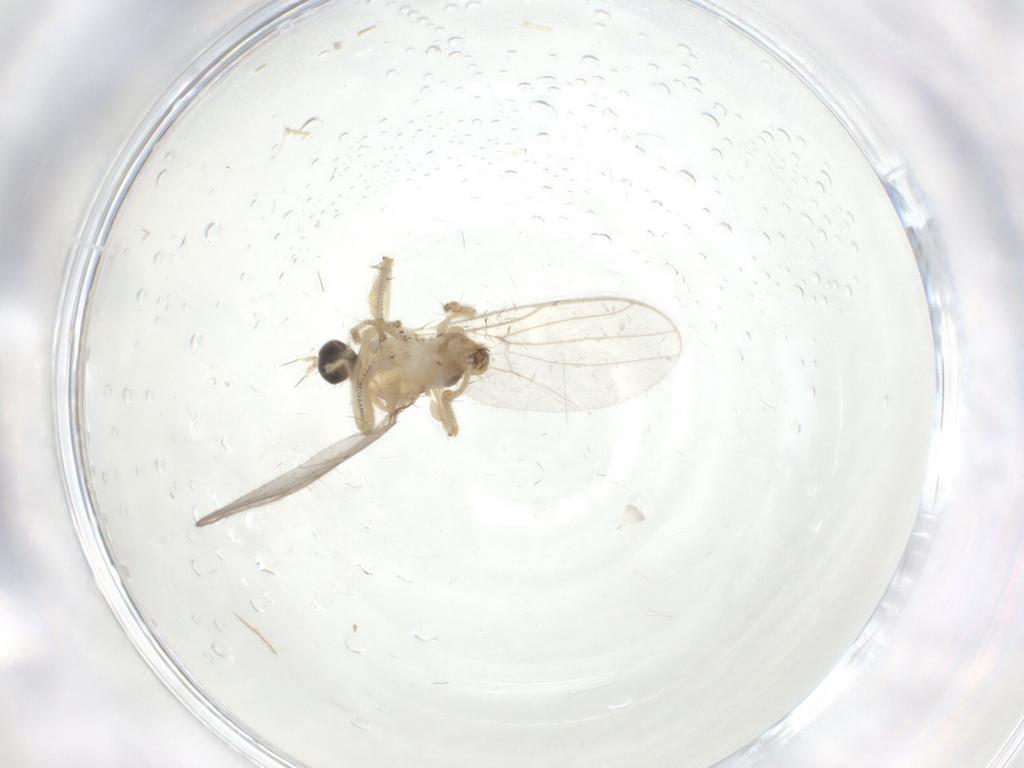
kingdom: Animalia
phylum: Arthropoda
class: Insecta
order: Diptera
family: Hybotidae
